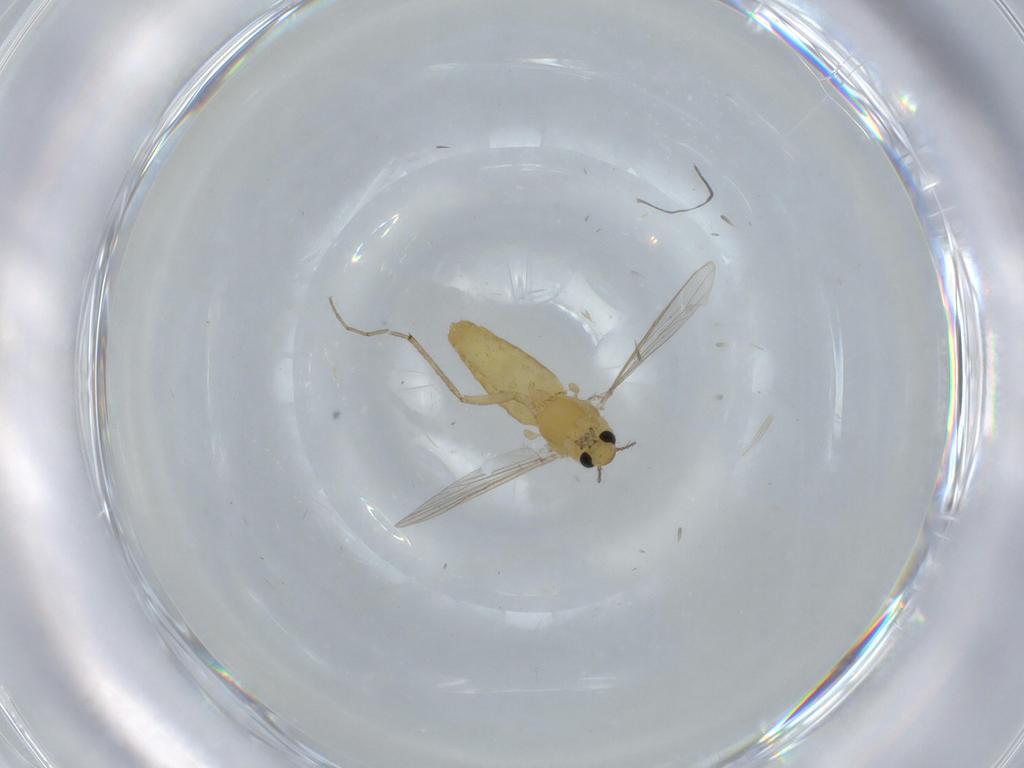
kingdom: Animalia
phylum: Arthropoda
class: Insecta
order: Diptera
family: Chironomidae
